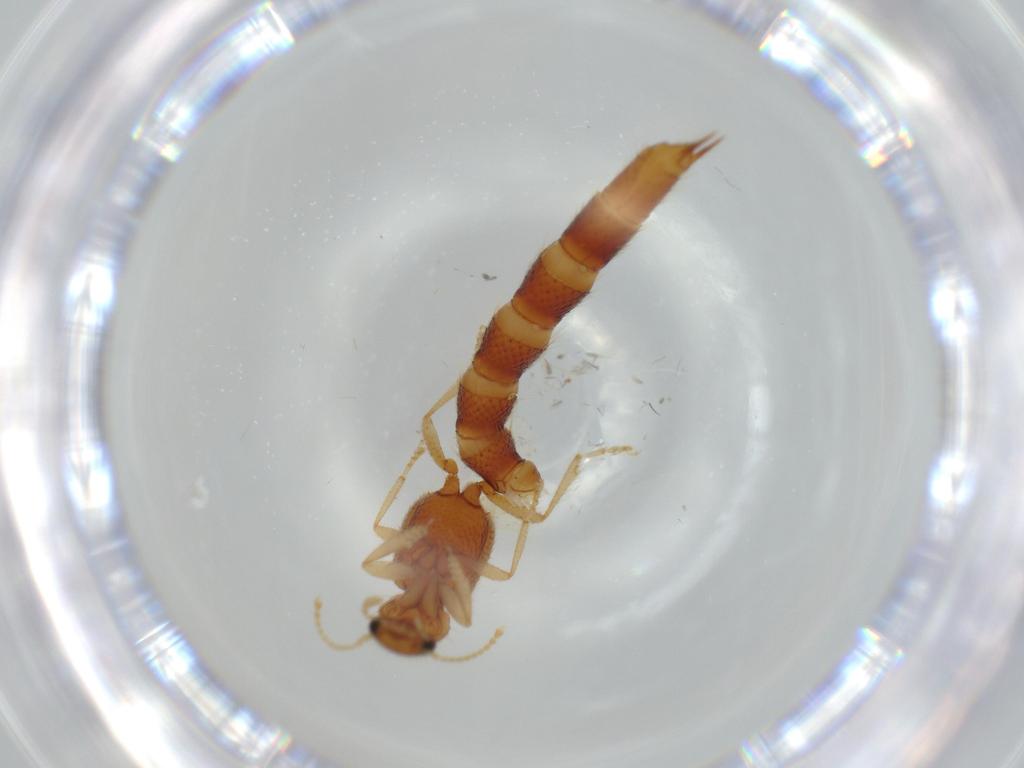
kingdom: Animalia
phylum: Arthropoda
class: Insecta
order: Coleoptera
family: Staphylinidae
